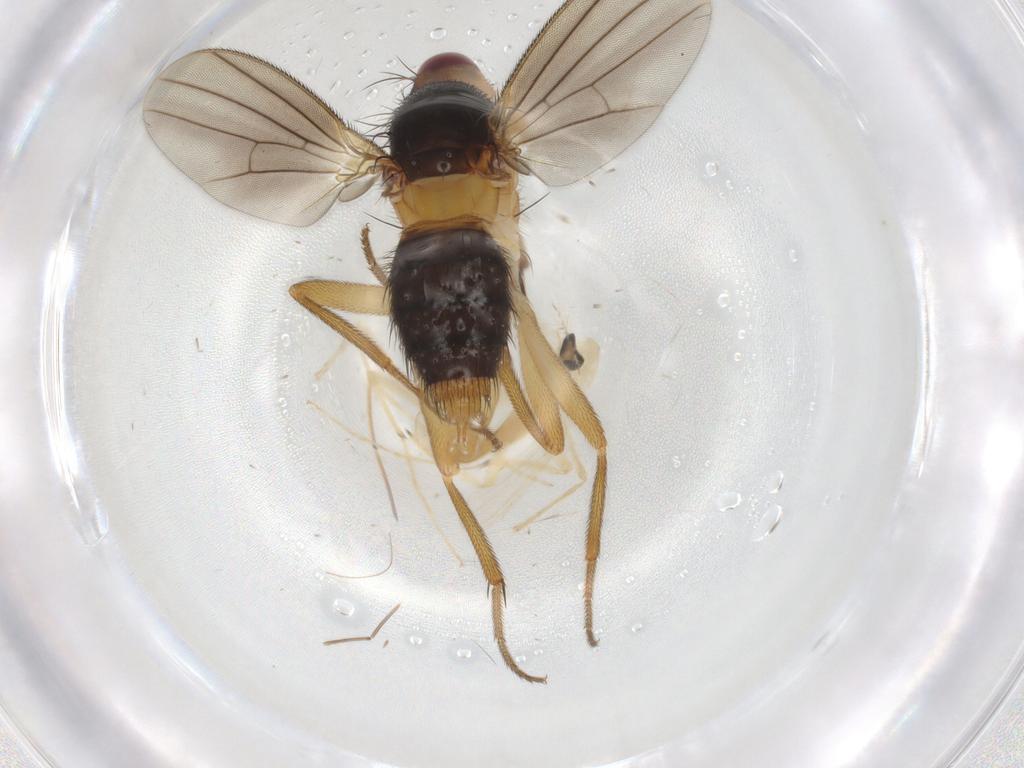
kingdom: Animalia
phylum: Arthropoda
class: Insecta
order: Diptera
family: Clusiidae
